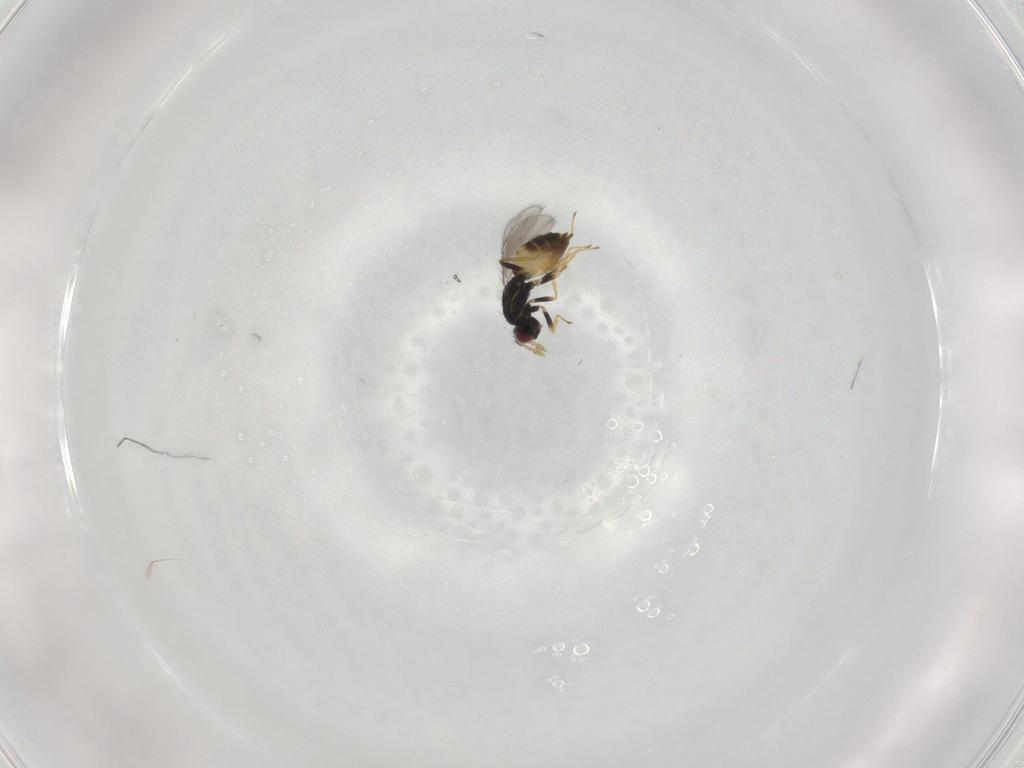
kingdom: Animalia
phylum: Arthropoda
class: Insecta
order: Hymenoptera
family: Eulophidae
